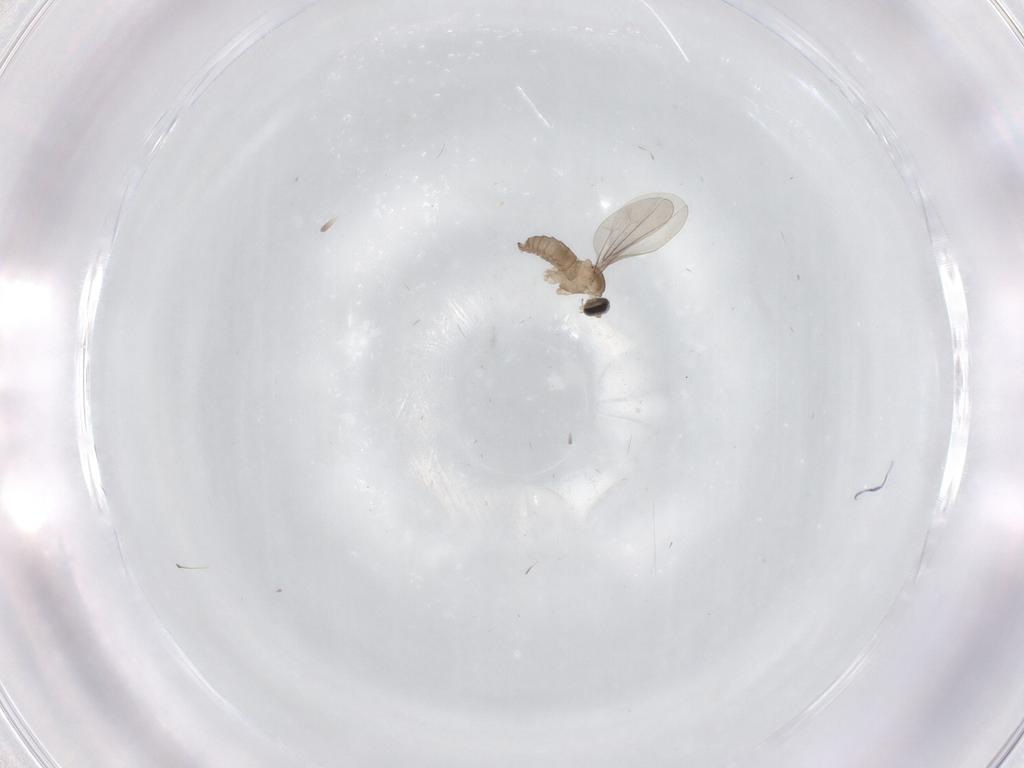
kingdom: Animalia
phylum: Arthropoda
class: Insecta
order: Diptera
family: Cecidomyiidae
